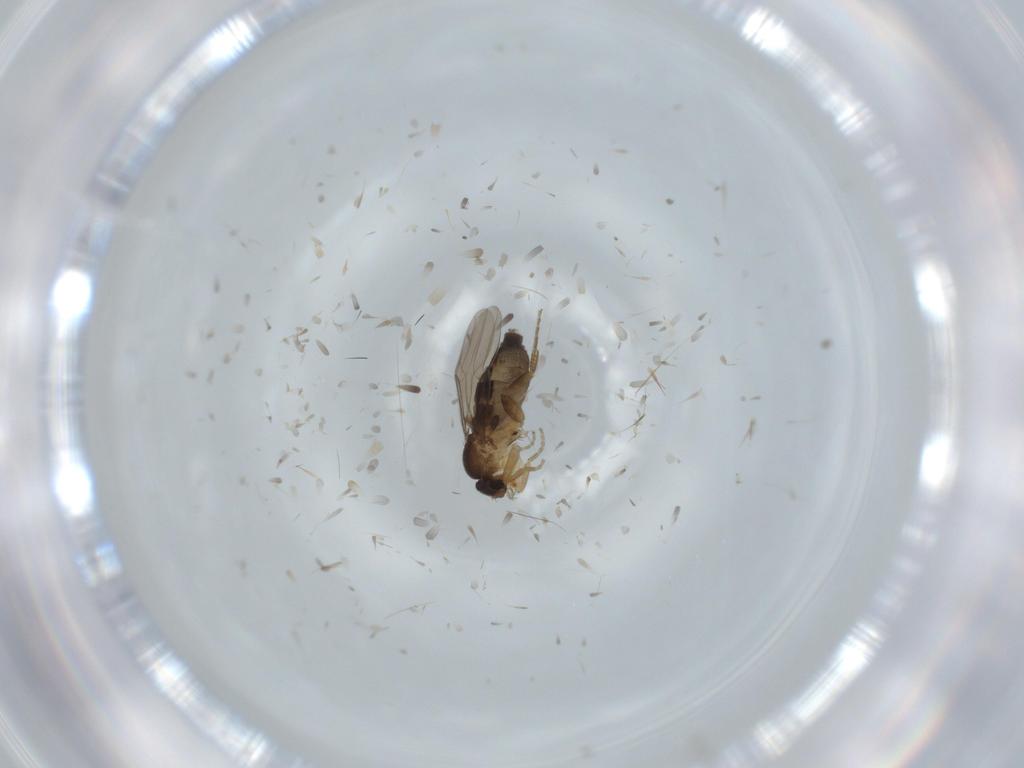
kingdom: Animalia
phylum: Arthropoda
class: Insecta
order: Diptera
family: Phoridae
